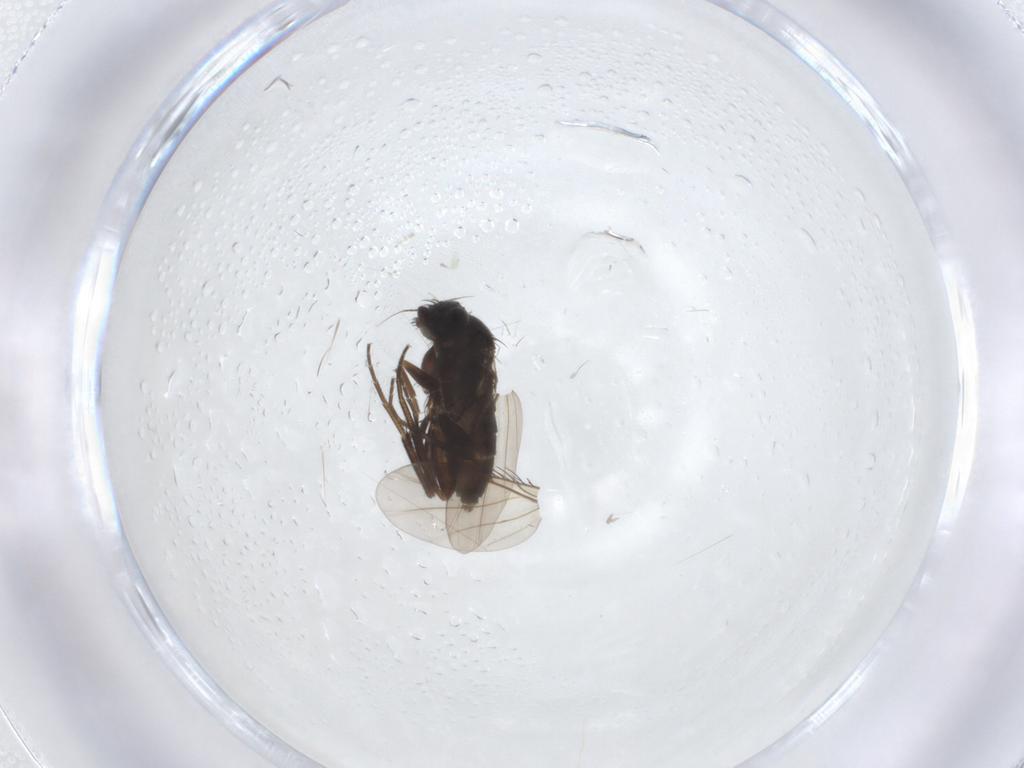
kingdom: Animalia
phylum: Arthropoda
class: Insecta
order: Diptera
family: Phoridae
